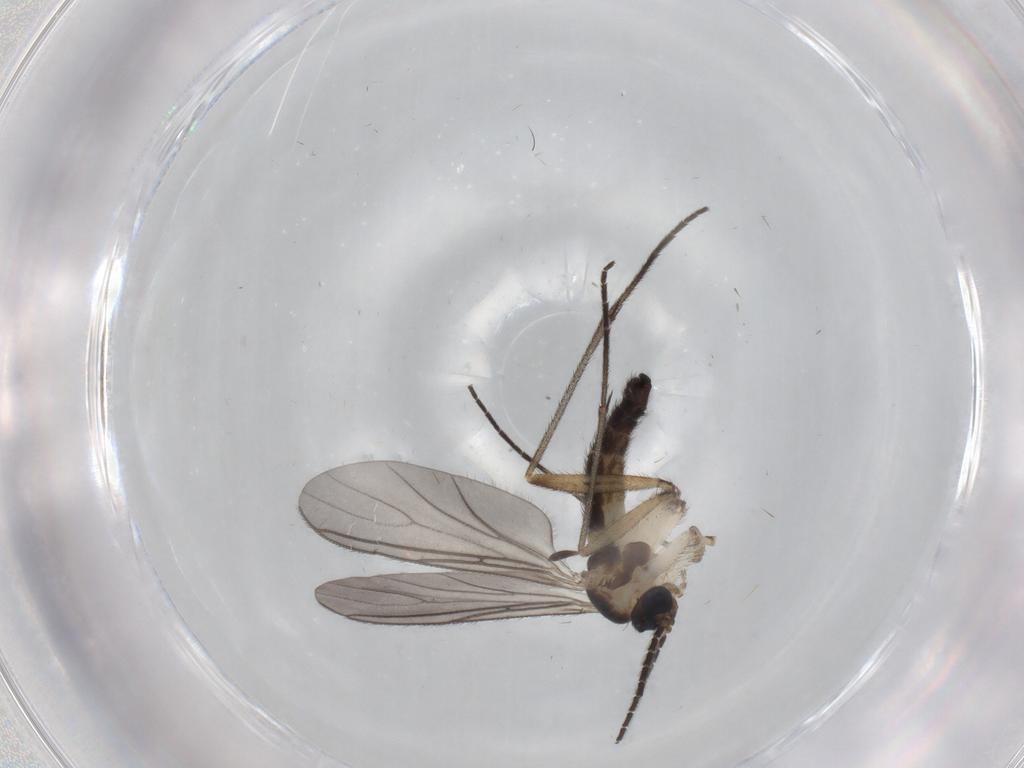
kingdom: Animalia
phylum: Arthropoda
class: Insecta
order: Diptera
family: Sciaridae
